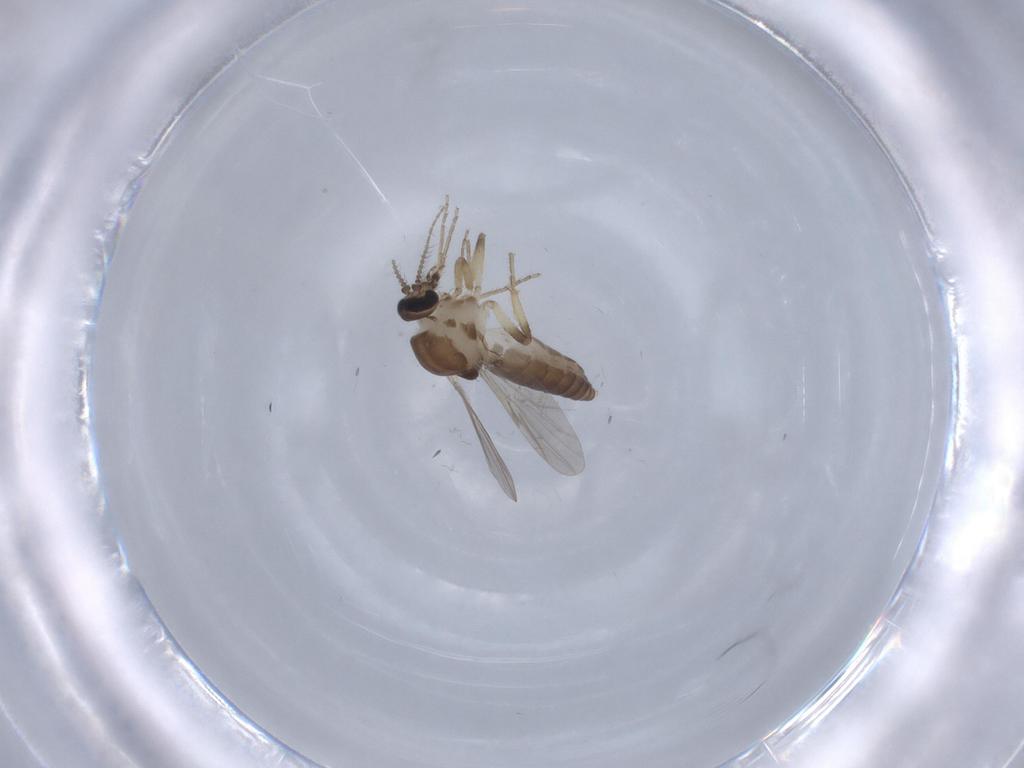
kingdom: Animalia
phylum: Arthropoda
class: Insecta
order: Diptera
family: Ceratopogonidae
